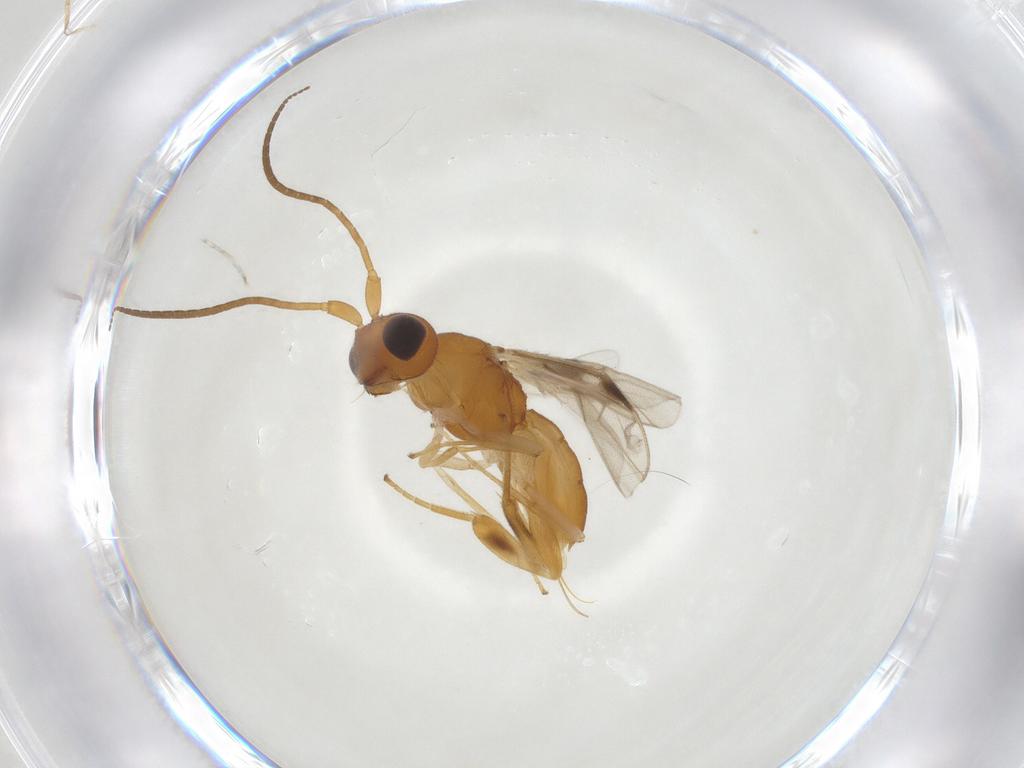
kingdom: Animalia
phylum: Arthropoda
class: Insecta
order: Hymenoptera
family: Braconidae
